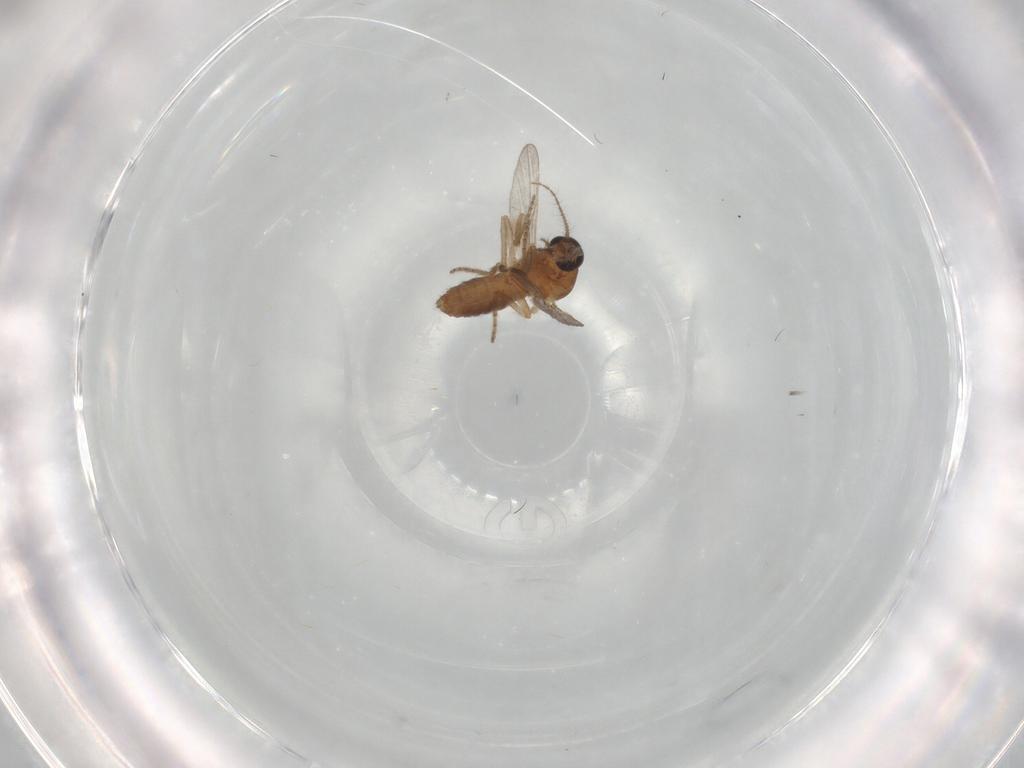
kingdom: Animalia
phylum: Arthropoda
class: Insecta
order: Diptera
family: Ceratopogonidae
